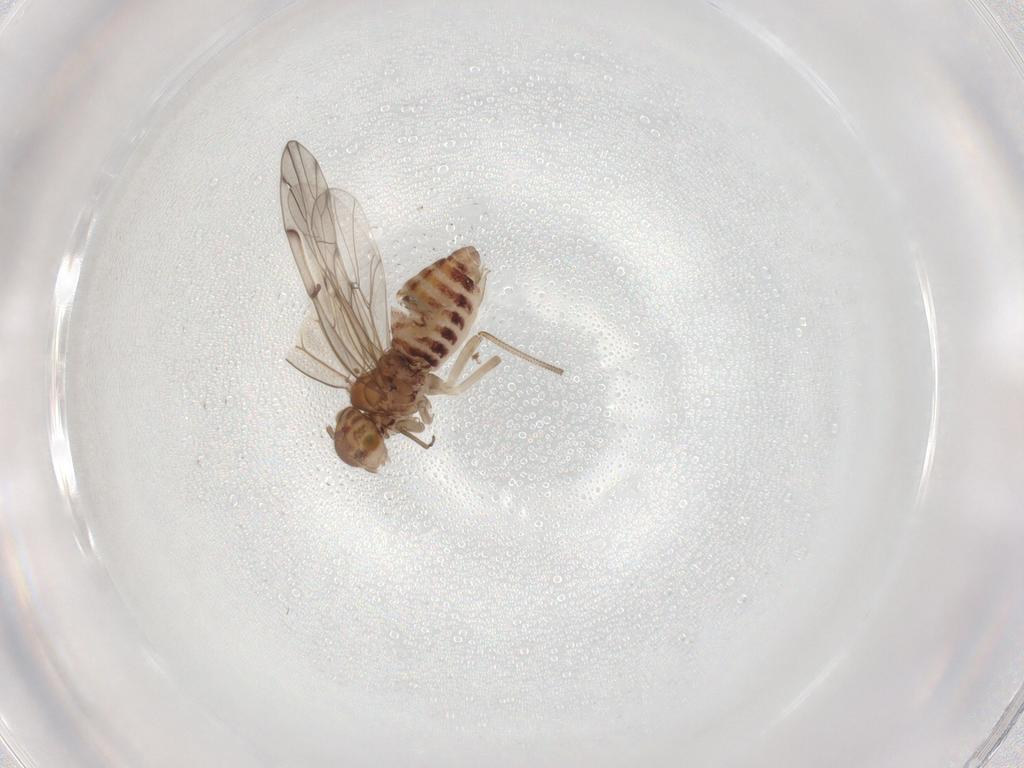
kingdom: Animalia
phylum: Arthropoda
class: Insecta
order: Psocodea
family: Philotarsidae
